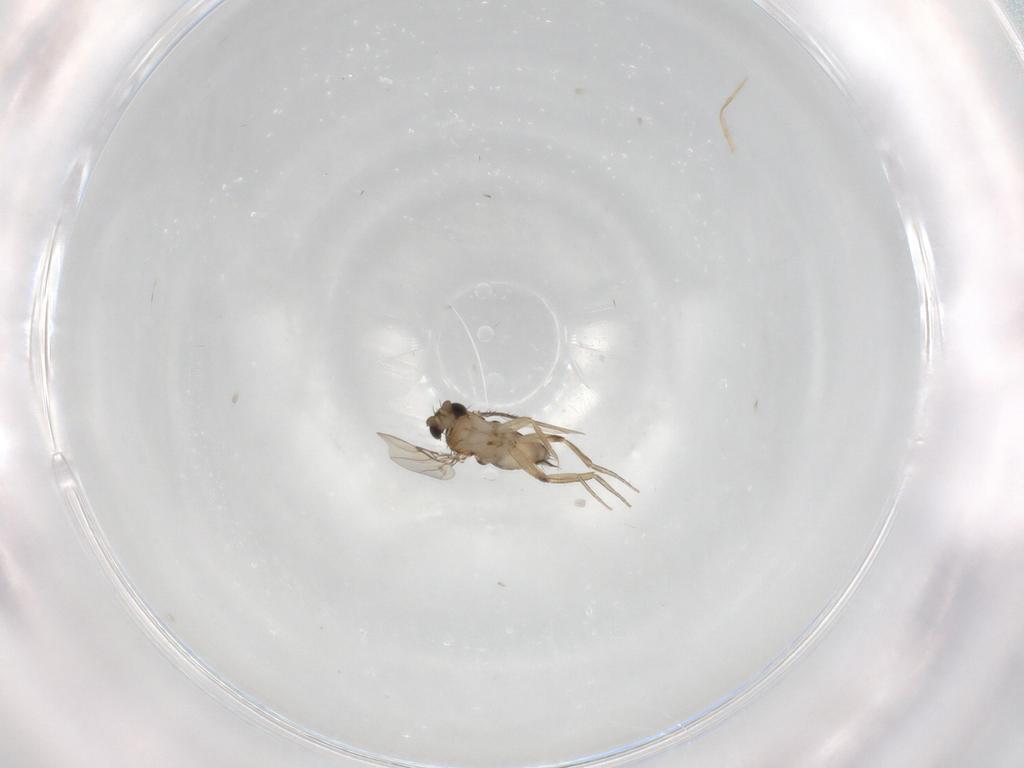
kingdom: Animalia
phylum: Arthropoda
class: Insecta
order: Diptera
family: Phoridae
